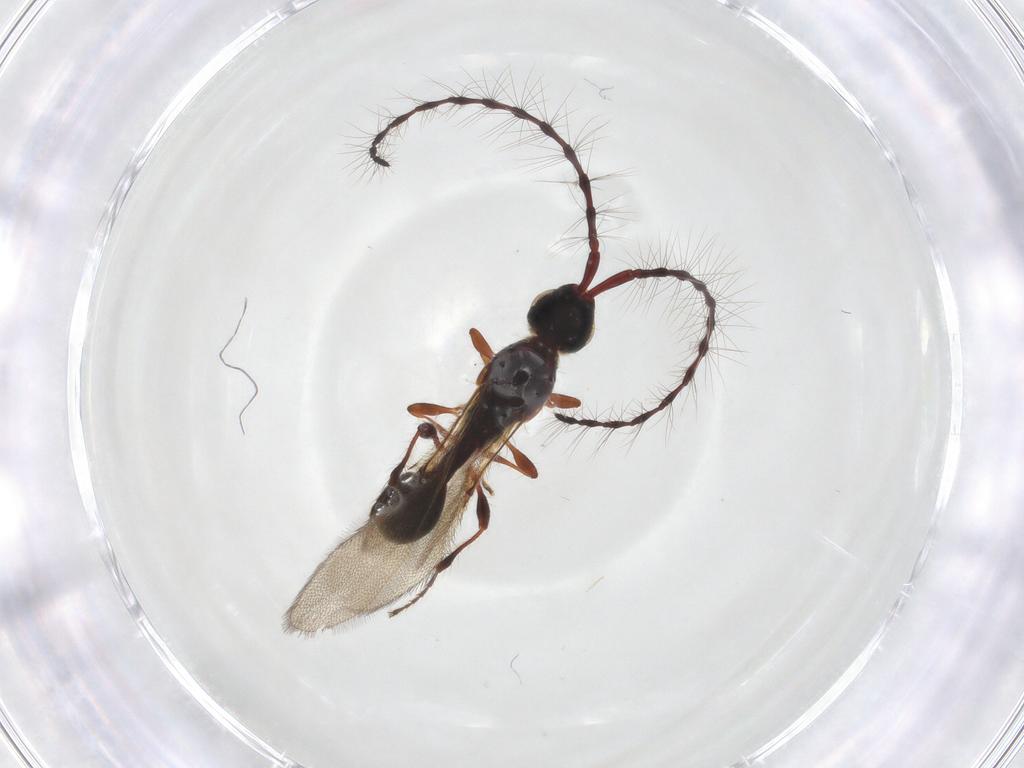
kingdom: Animalia
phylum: Arthropoda
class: Insecta
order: Hymenoptera
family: Diapriidae
